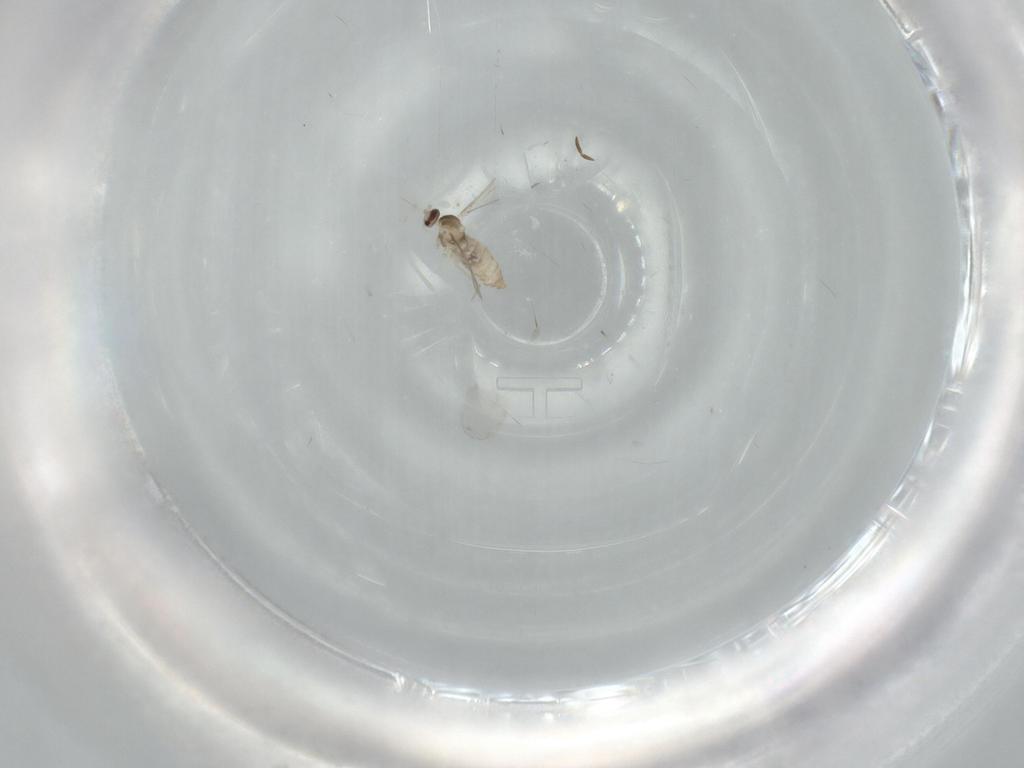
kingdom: Animalia
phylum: Arthropoda
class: Insecta
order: Diptera
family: Cecidomyiidae
